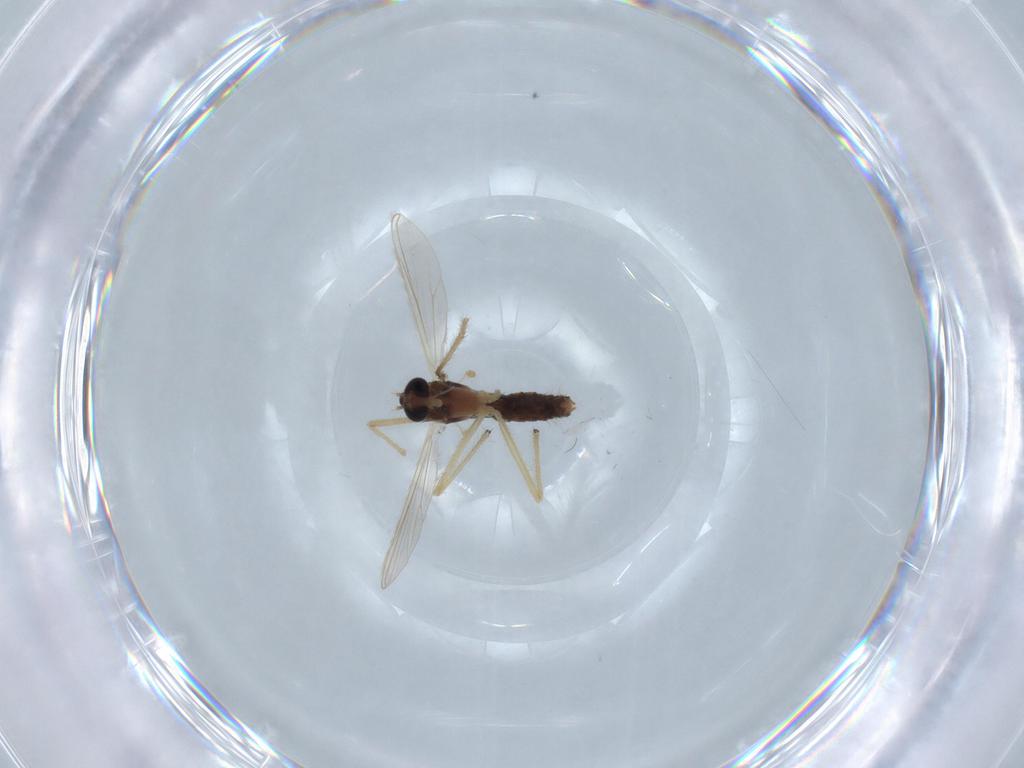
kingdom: Animalia
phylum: Arthropoda
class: Insecta
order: Diptera
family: Chironomidae
